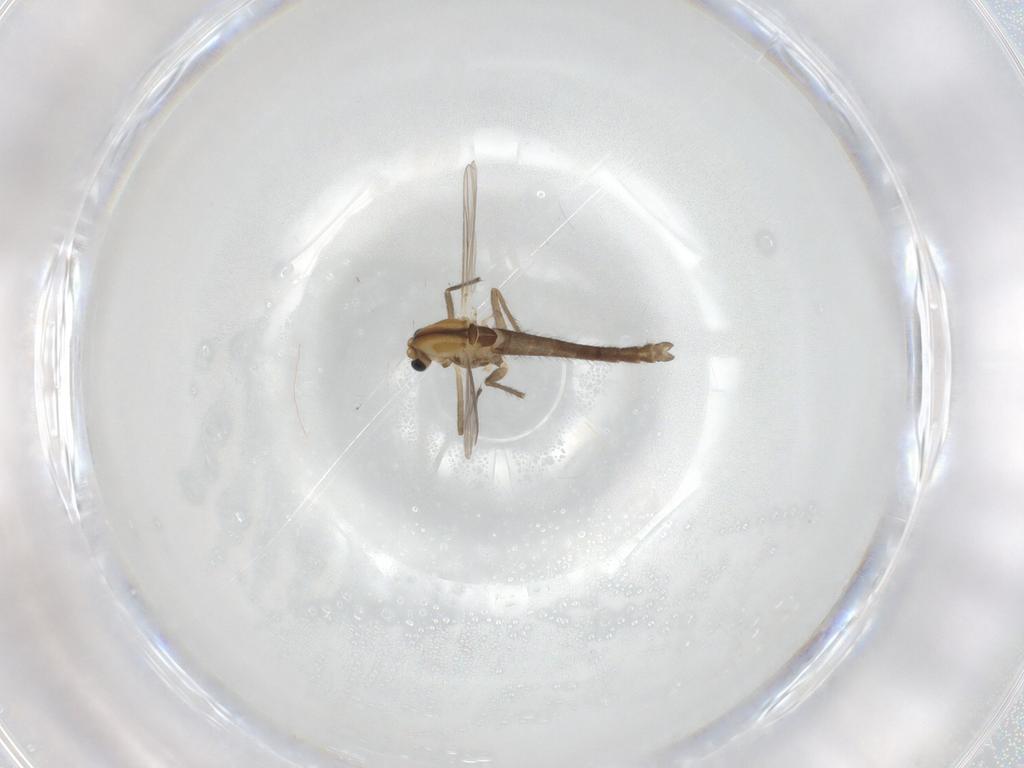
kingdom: Animalia
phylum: Arthropoda
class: Insecta
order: Diptera
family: Chironomidae
